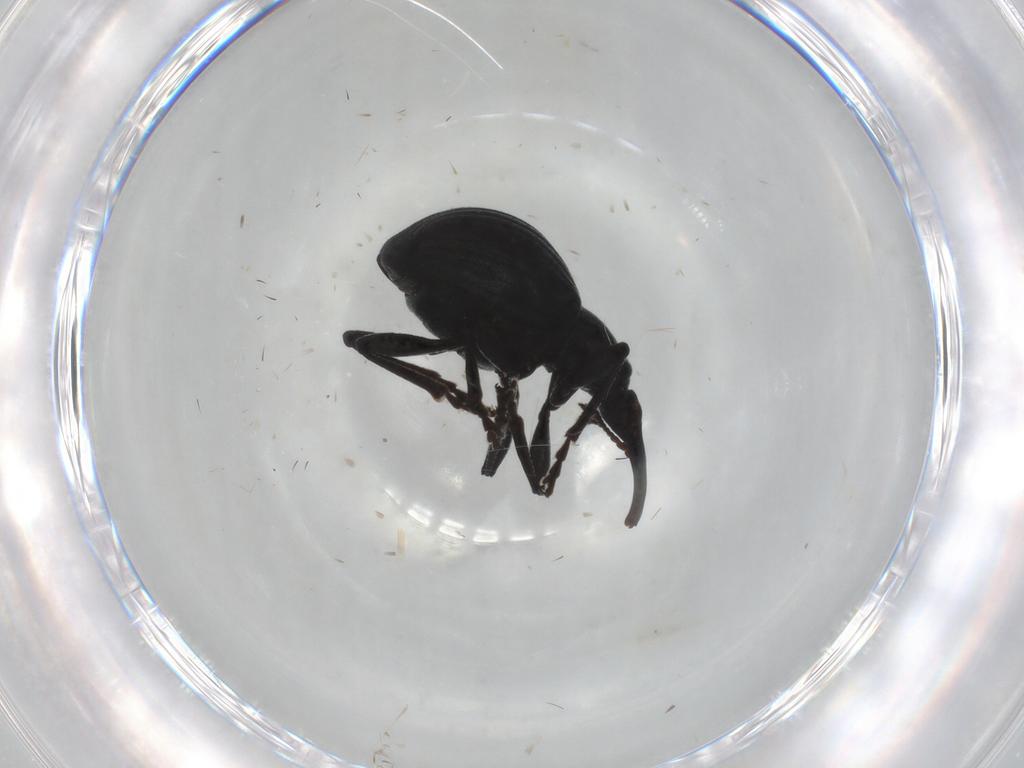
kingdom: Animalia
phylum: Arthropoda
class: Insecta
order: Coleoptera
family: Brentidae
